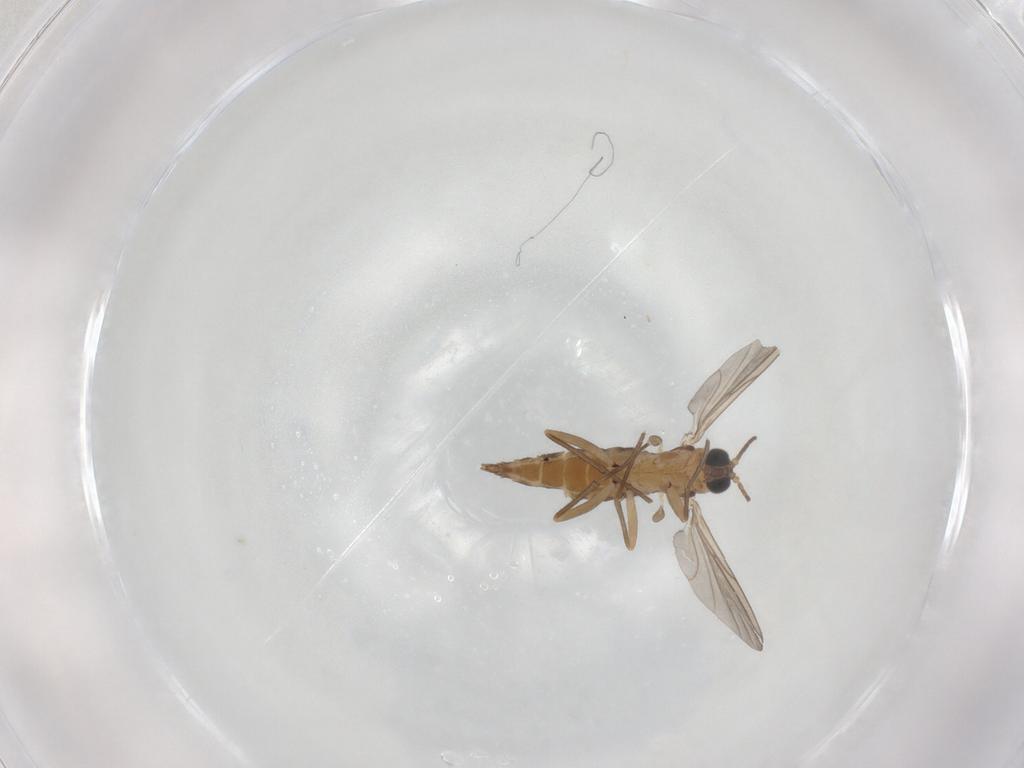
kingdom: Animalia
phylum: Arthropoda
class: Insecta
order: Diptera
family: Sciaridae
